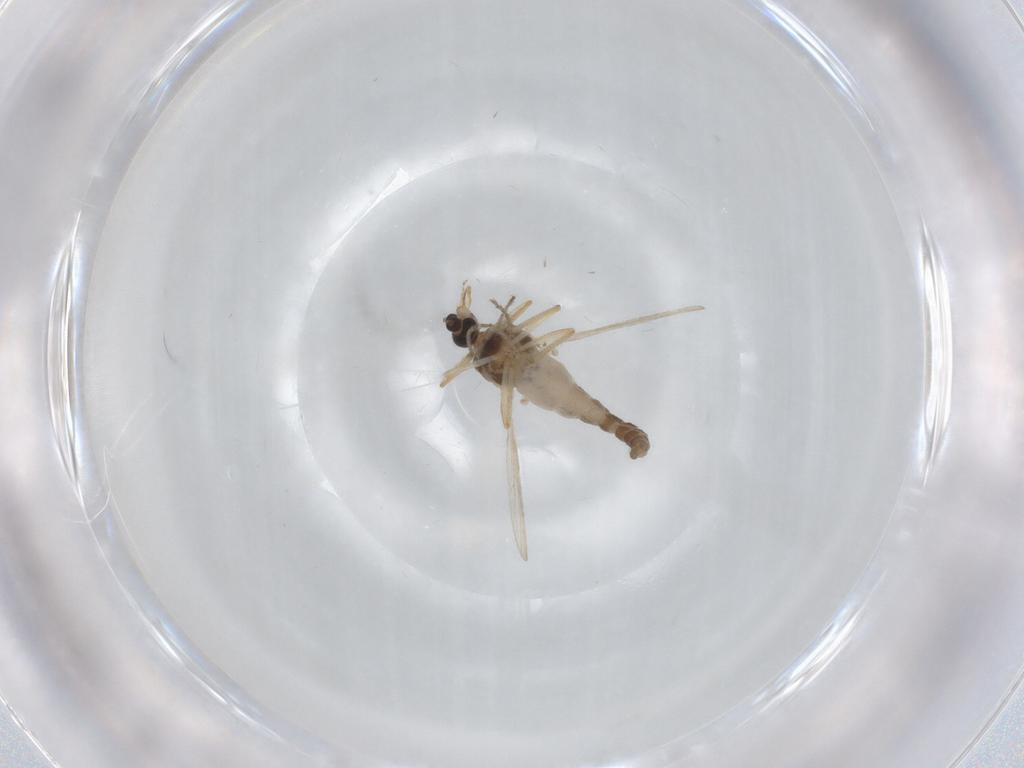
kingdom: Animalia
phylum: Arthropoda
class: Insecta
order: Diptera
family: Ceratopogonidae
